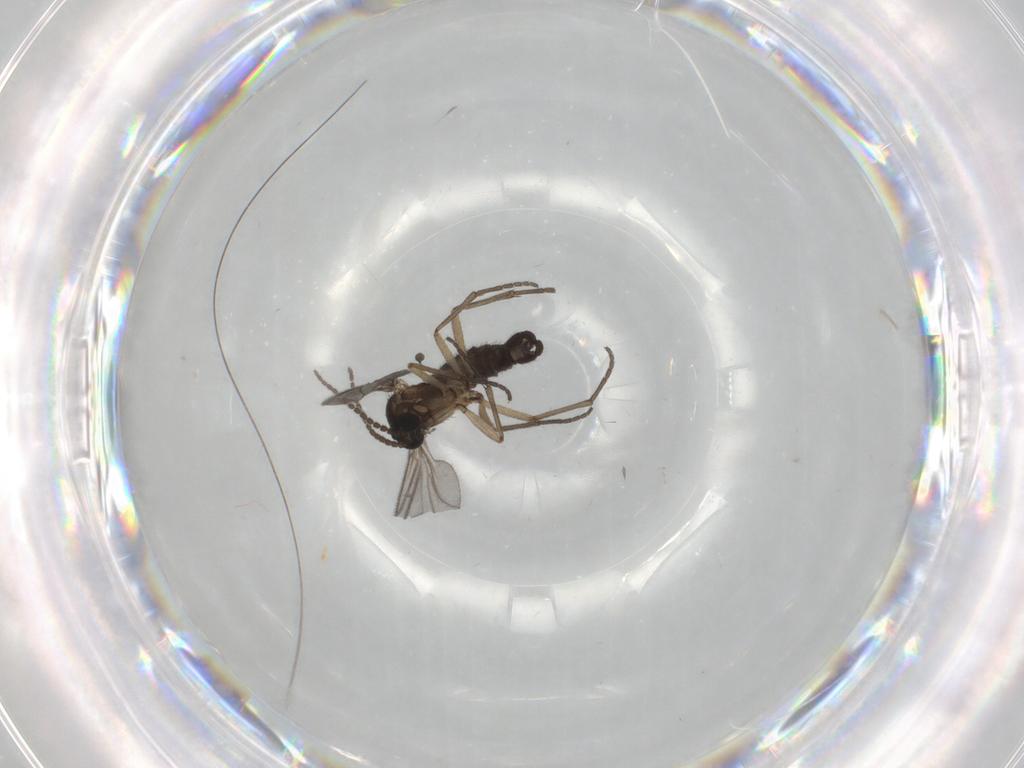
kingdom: Animalia
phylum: Arthropoda
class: Insecta
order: Diptera
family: Sciaridae
